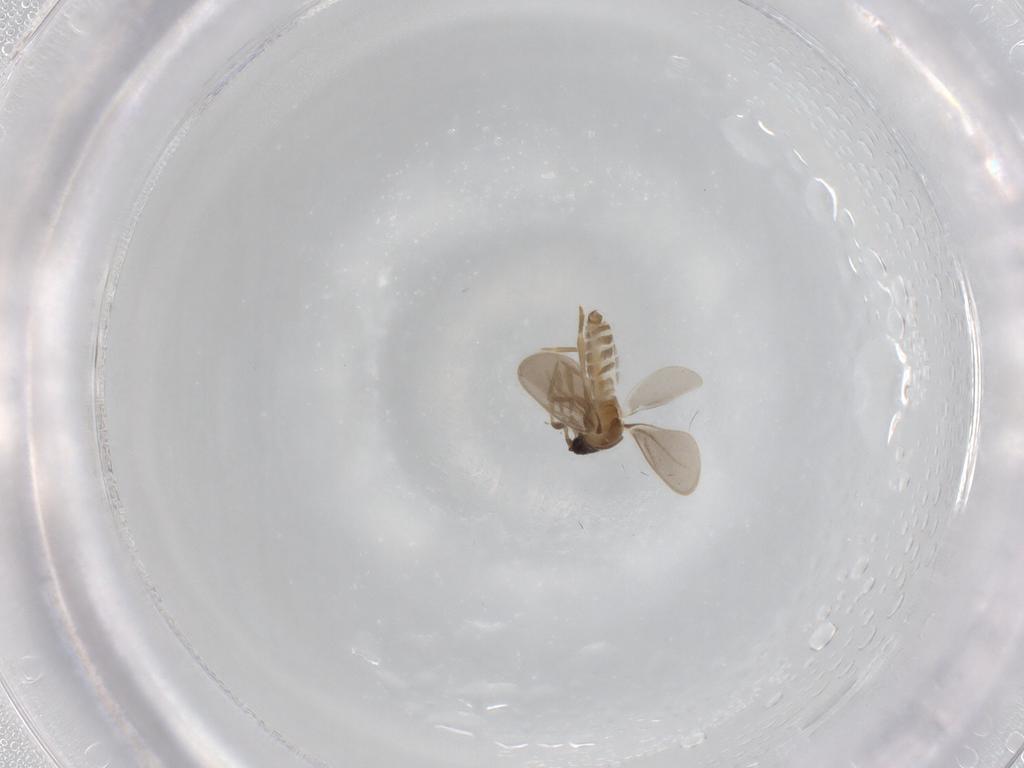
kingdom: Animalia
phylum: Arthropoda
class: Insecta
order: Hemiptera
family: Enicocephalidae
